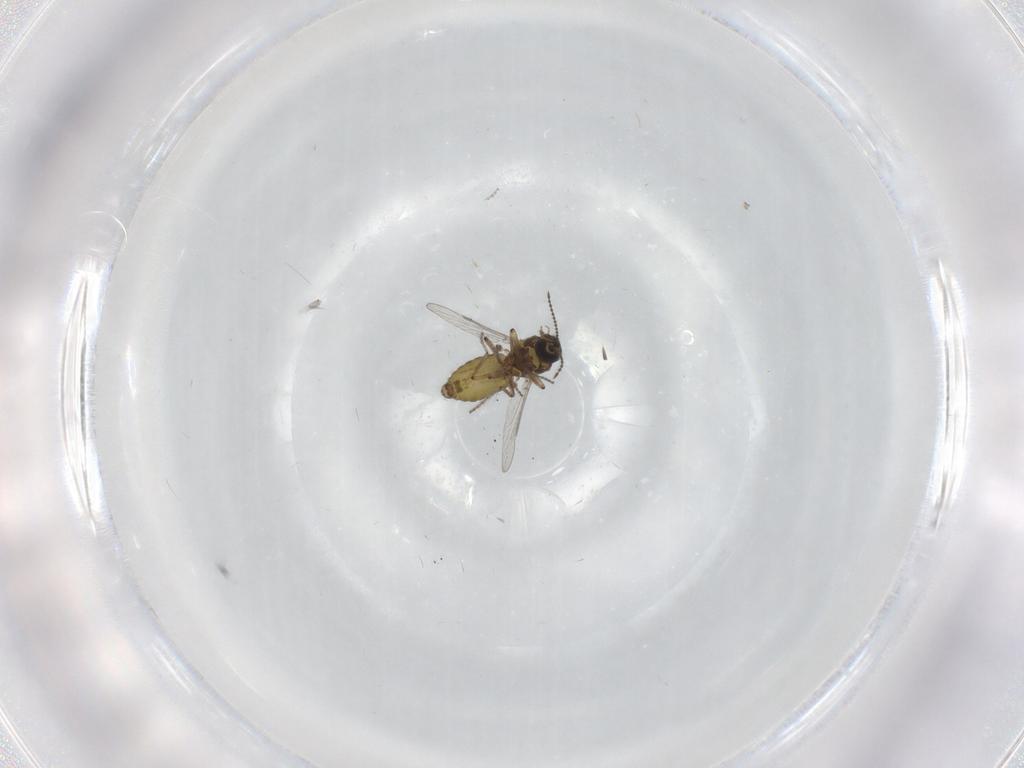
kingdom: Animalia
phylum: Arthropoda
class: Insecta
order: Diptera
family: Ceratopogonidae
